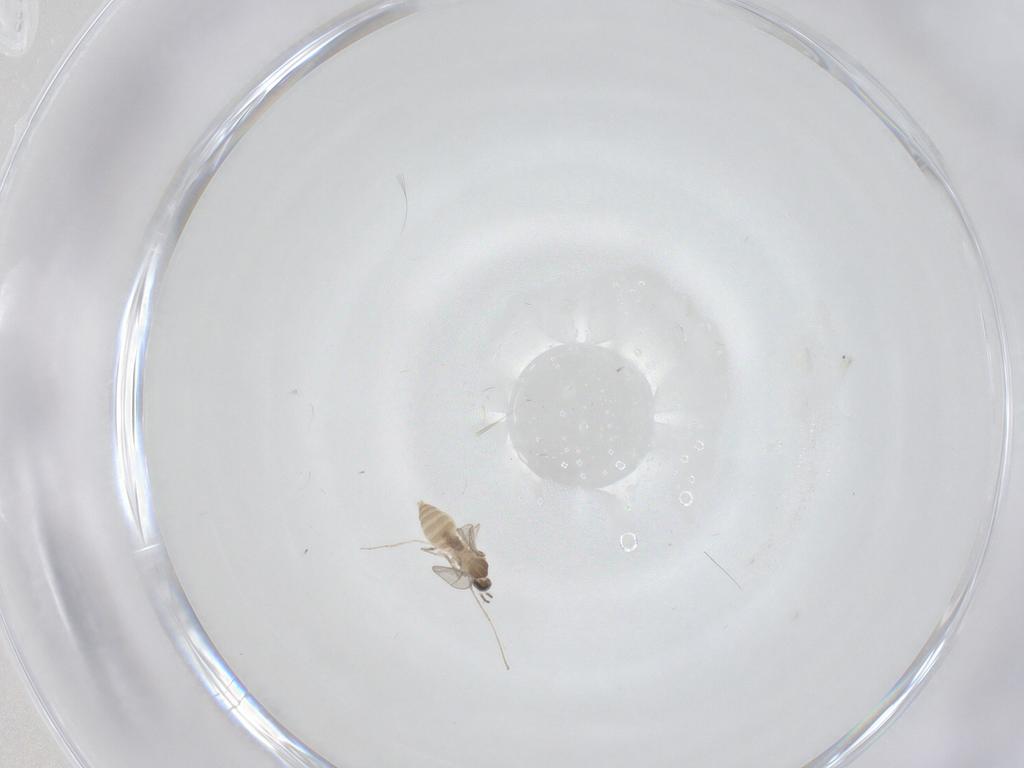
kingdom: Animalia
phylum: Arthropoda
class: Insecta
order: Diptera
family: Cecidomyiidae
